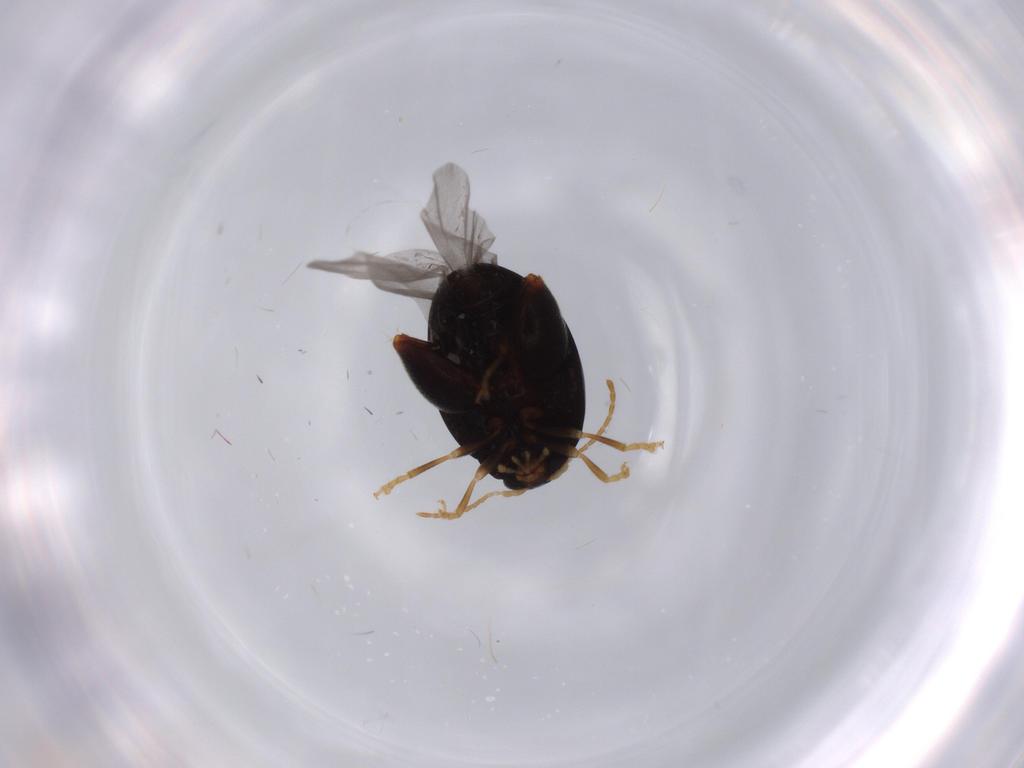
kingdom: Animalia
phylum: Arthropoda
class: Insecta
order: Coleoptera
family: Chrysomelidae
